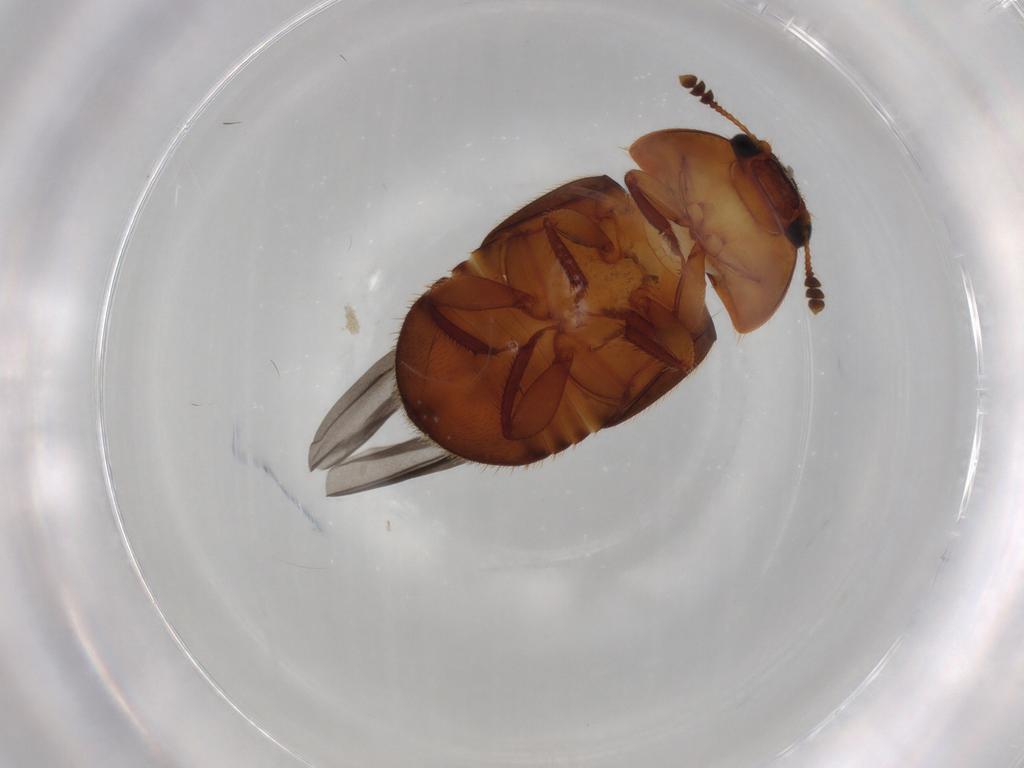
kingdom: Animalia
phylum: Arthropoda
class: Insecta
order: Coleoptera
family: Nitidulidae
